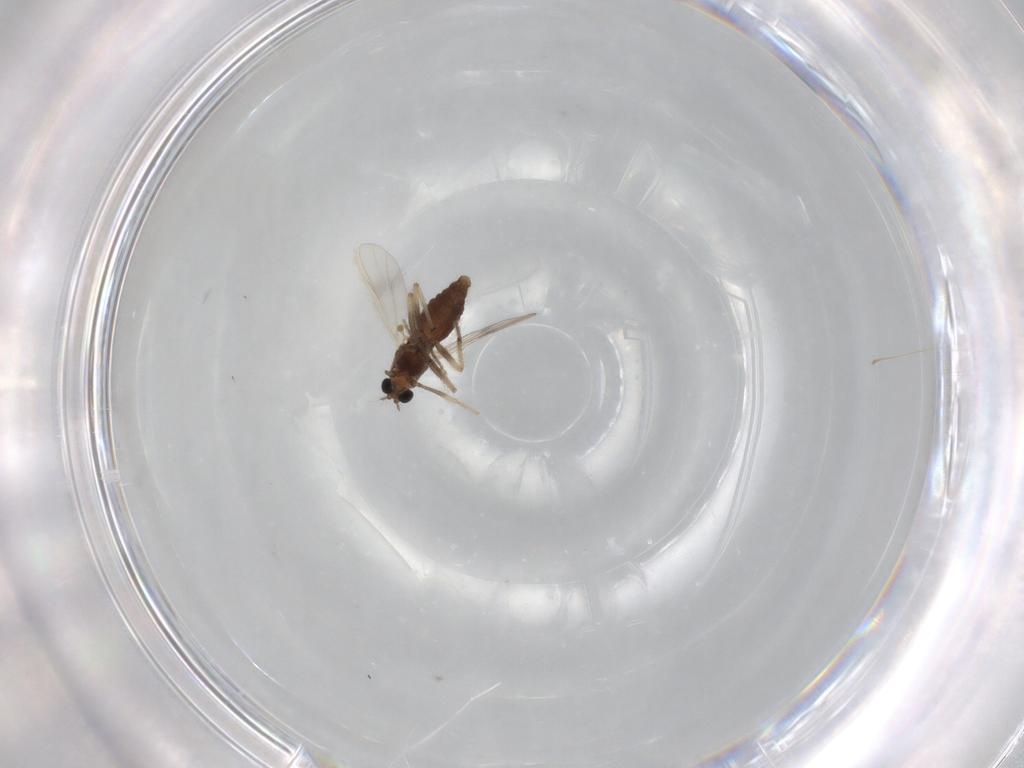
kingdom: Animalia
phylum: Arthropoda
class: Insecta
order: Diptera
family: Chironomidae
